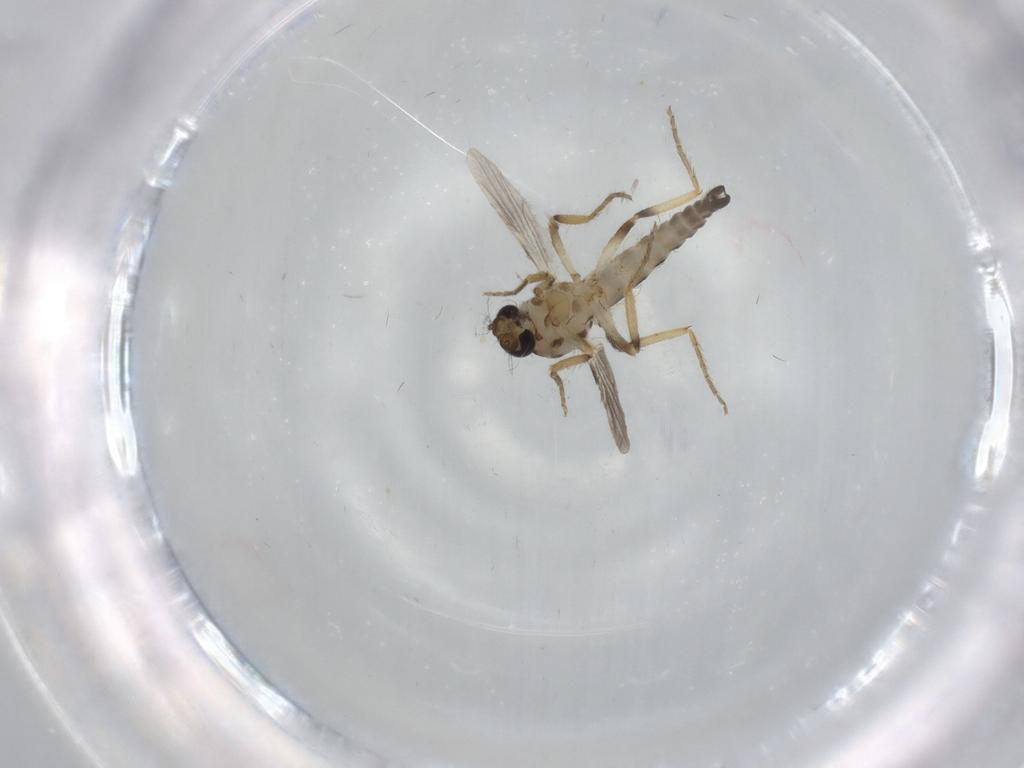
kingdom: Animalia
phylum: Arthropoda
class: Insecta
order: Diptera
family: Ceratopogonidae
